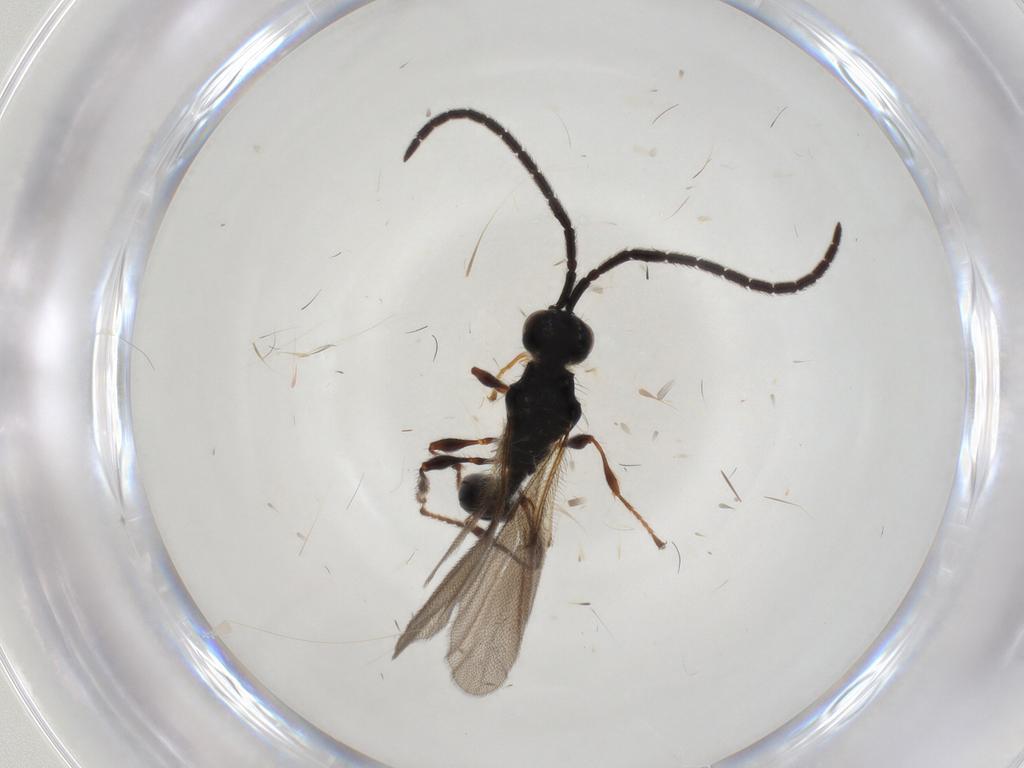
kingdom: Animalia
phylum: Arthropoda
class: Insecta
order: Hymenoptera
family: Diapriidae
